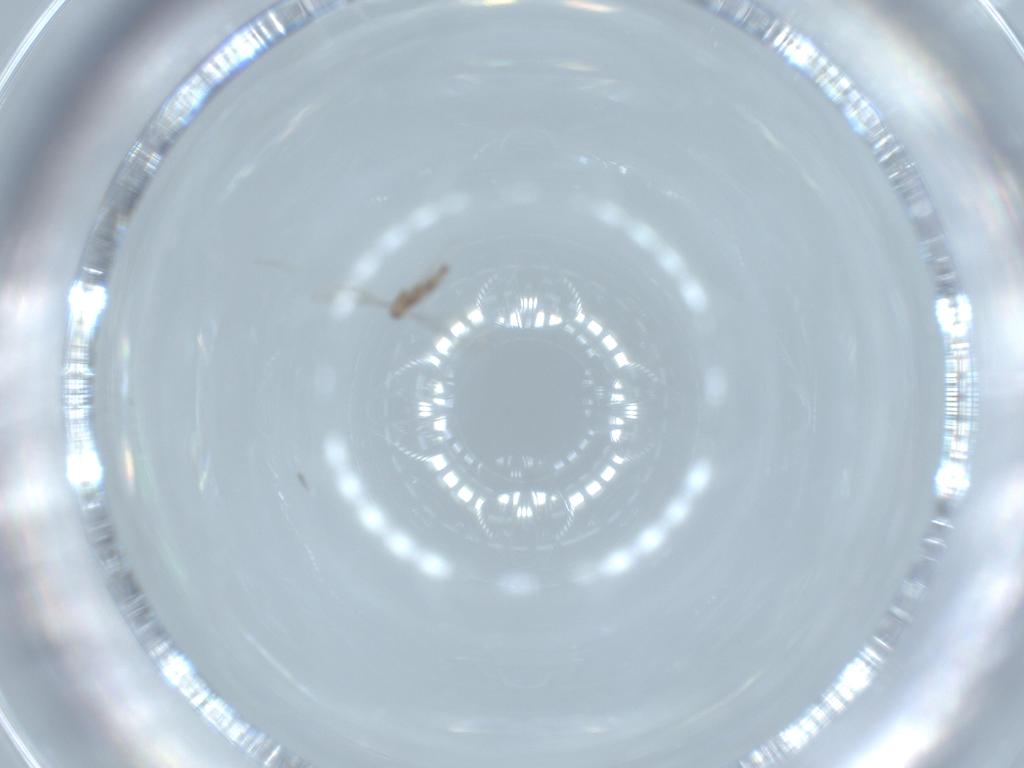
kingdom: Animalia
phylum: Arthropoda
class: Insecta
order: Diptera
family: Cecidomyiidae
